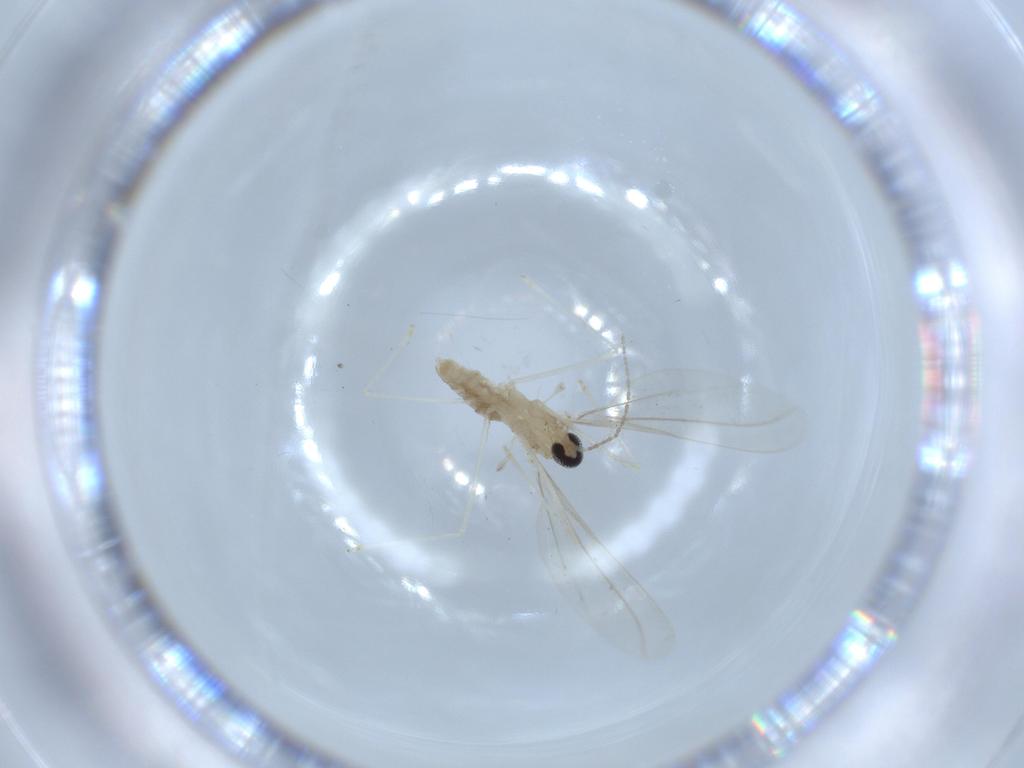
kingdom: Animalia
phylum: Arthropoda
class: Insecta
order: Diptera
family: Cecidomyiidae
